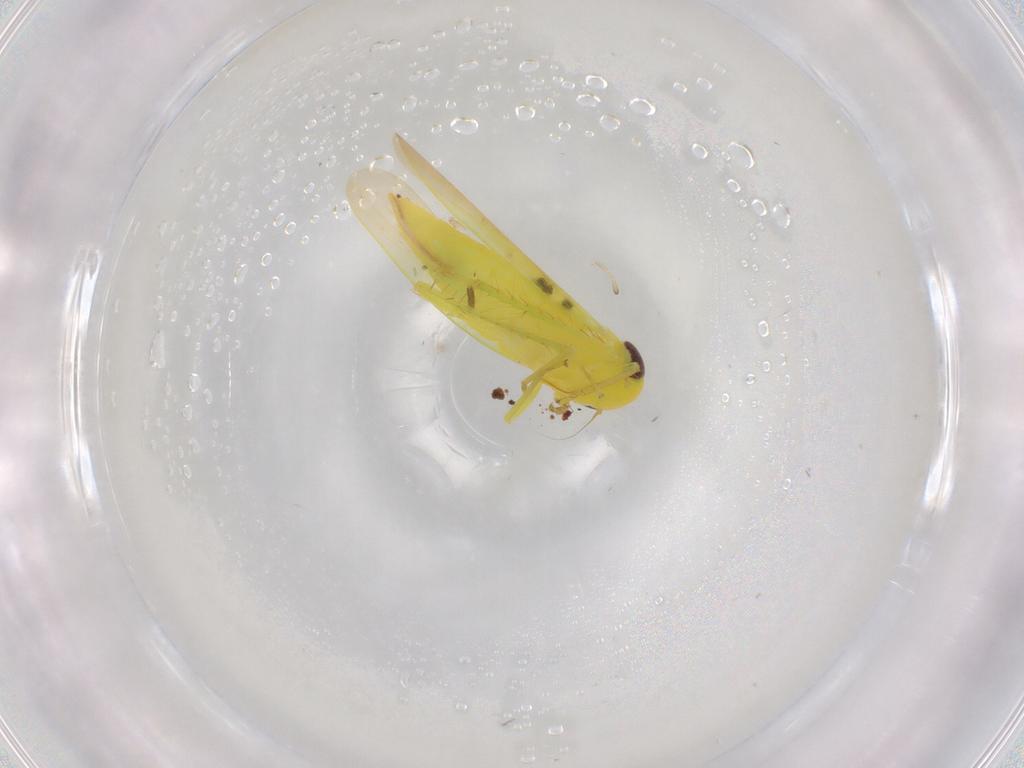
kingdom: Animalia
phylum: Arthropoda
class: Insecta
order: Hemiptera
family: Cicadellidae
